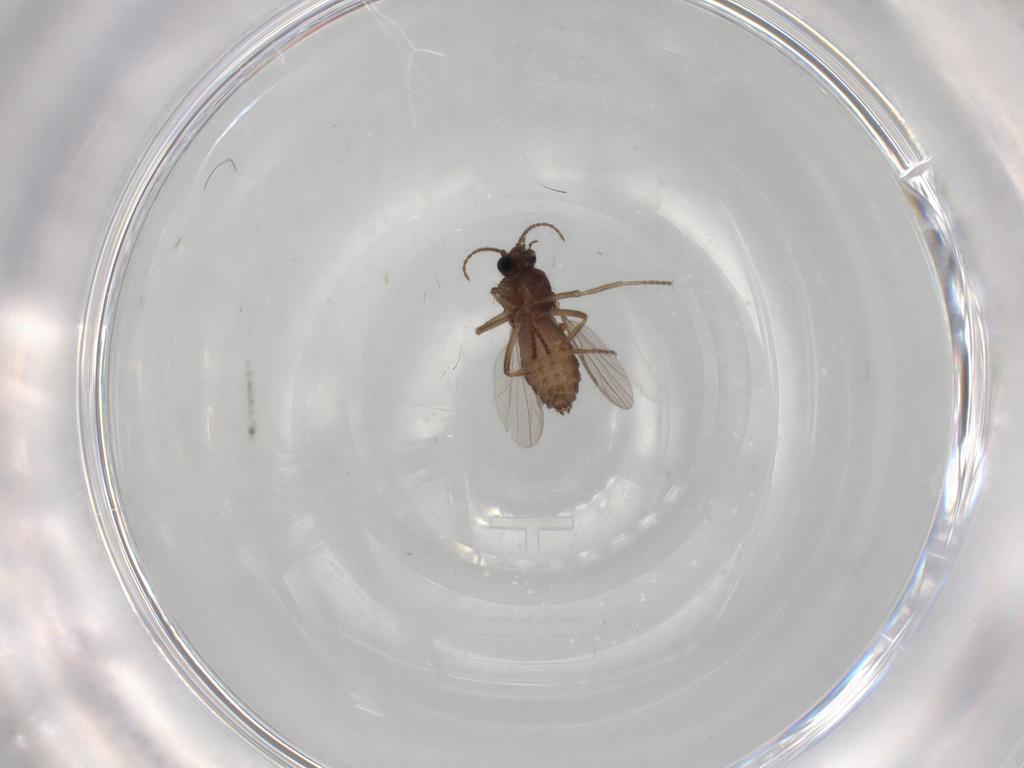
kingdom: Animalia
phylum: Arthropoda
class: Insecta
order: Diptera
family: Ceratopogonidae
